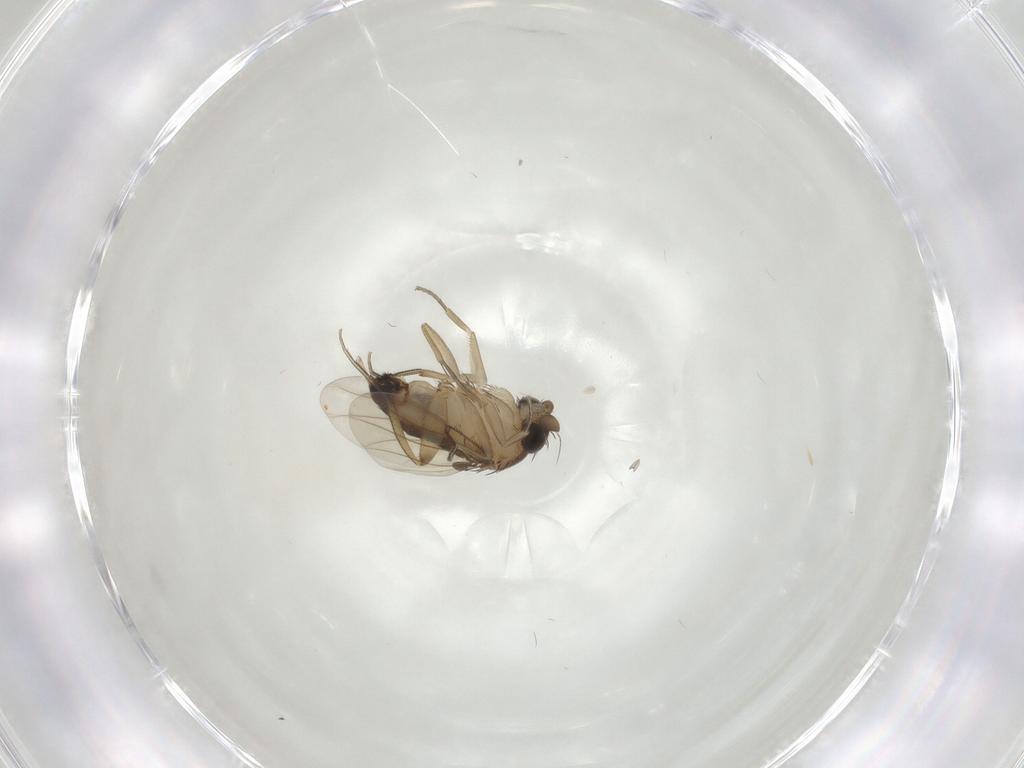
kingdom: Animalia
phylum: Arthropoda
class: Insecta
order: Diptera
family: Phoridae
